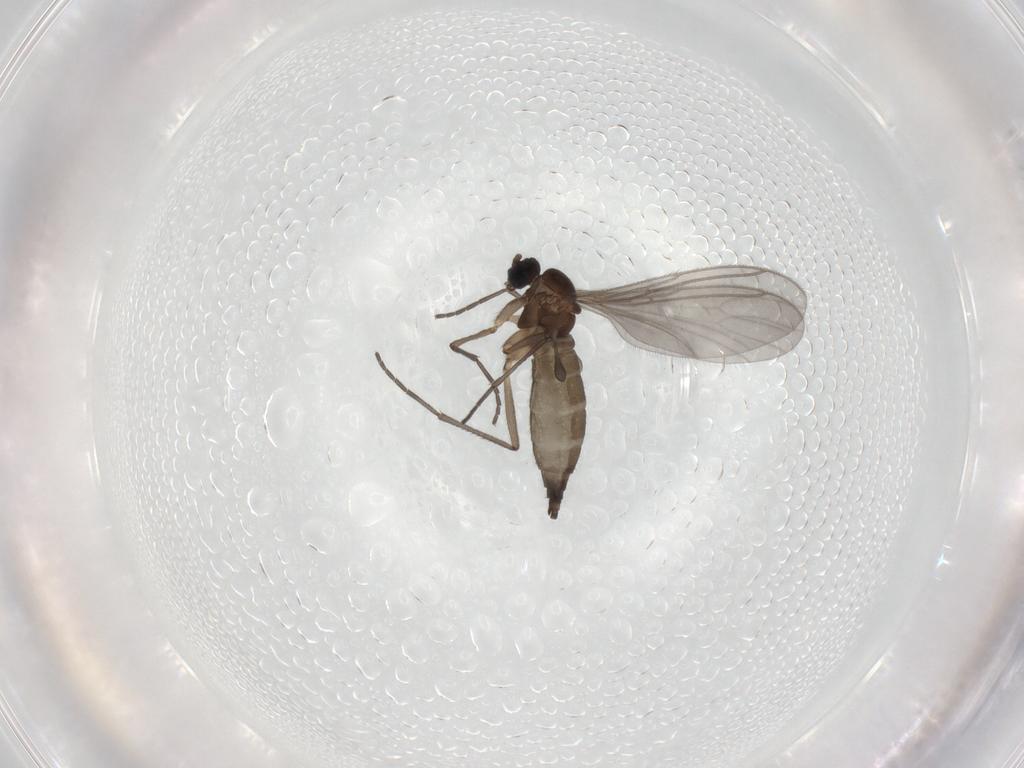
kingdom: Animalia
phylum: Arthropoda
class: Insecta
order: Diptera
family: Sciaridae
